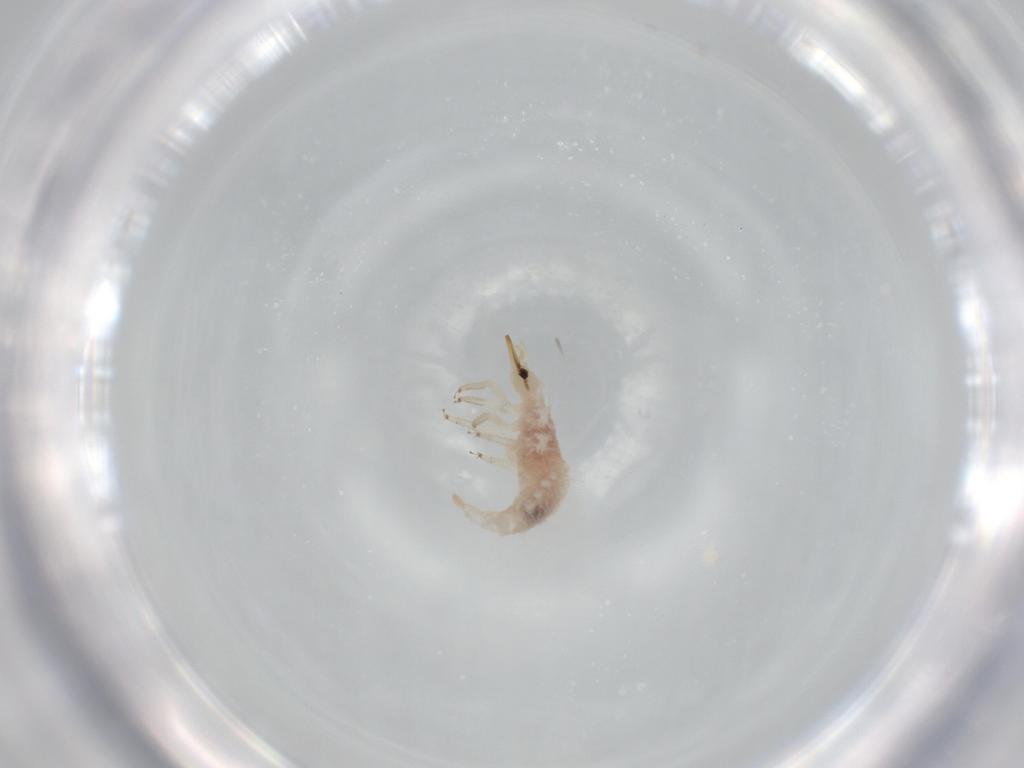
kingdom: Animalia
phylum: Arthropoda
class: Insecta
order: Neuroptera
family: Chrysopidae
